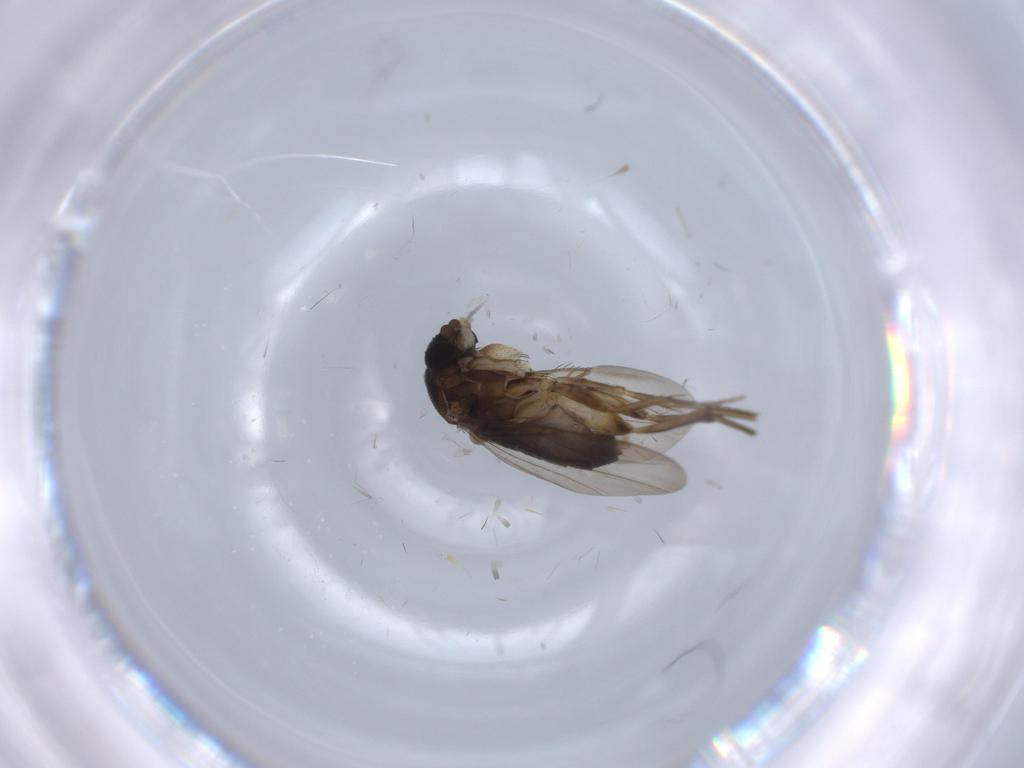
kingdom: Animalia
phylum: Arthropoda
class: Insecta
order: Diptera
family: Phoridae
